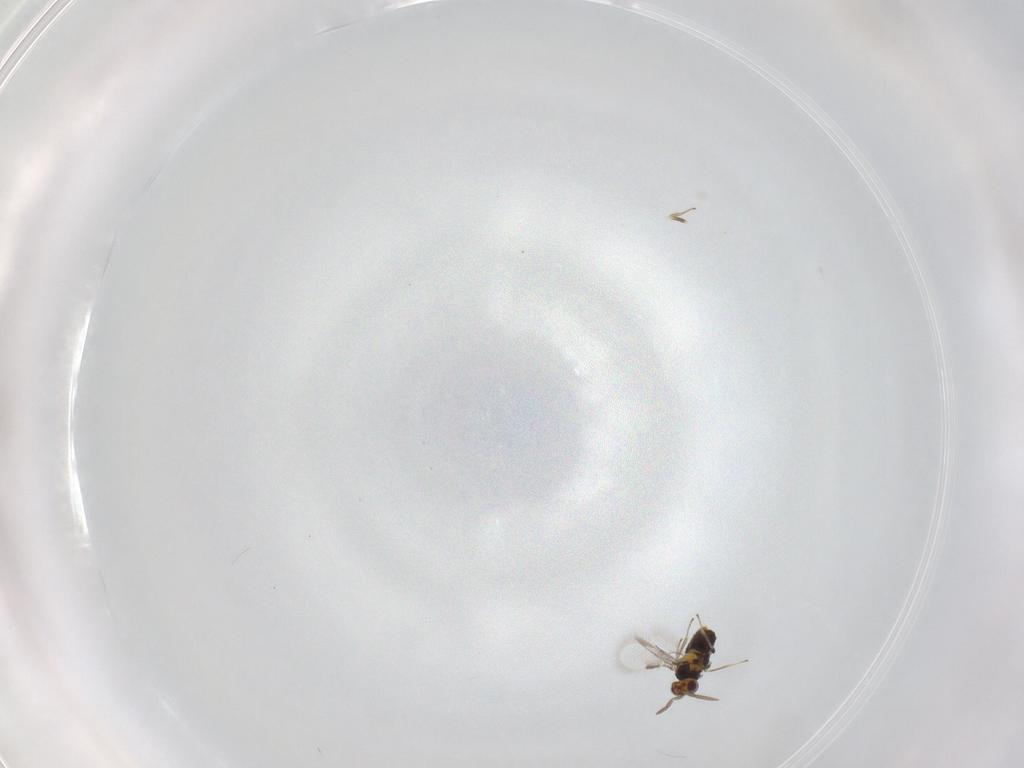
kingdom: Animalia
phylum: Arthropoda
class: Insecta
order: Hymenoptera
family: Aphelinidae
